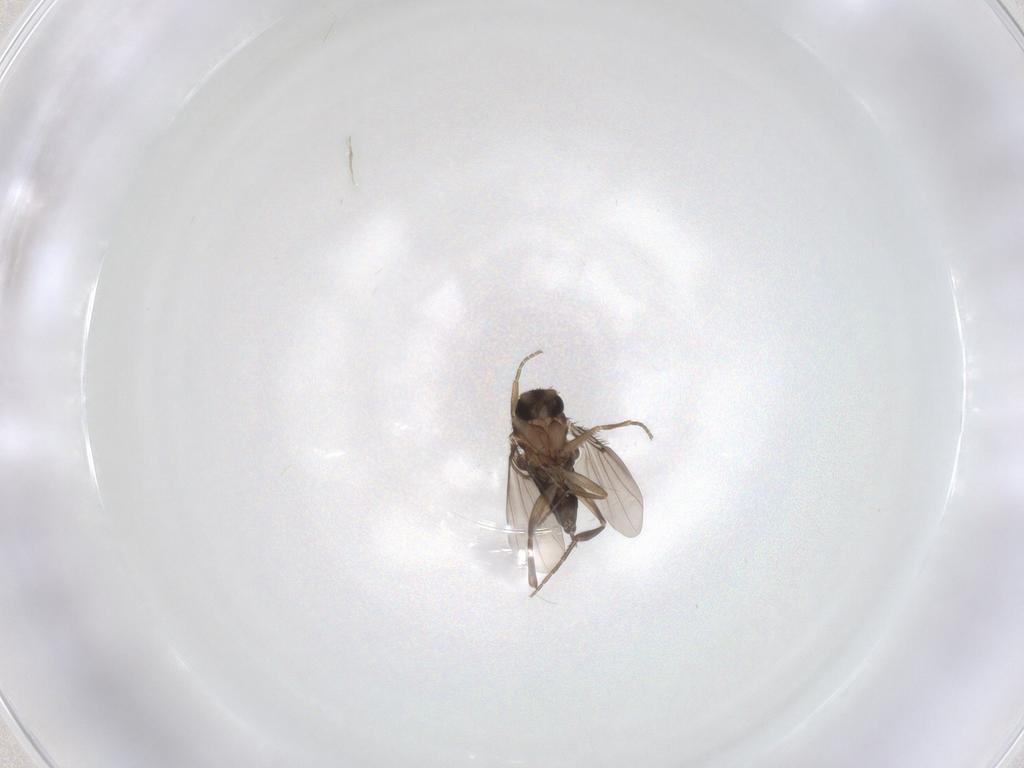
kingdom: Animalia
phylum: Arthropoda
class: Insecta
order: Diptera
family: Phoridae
